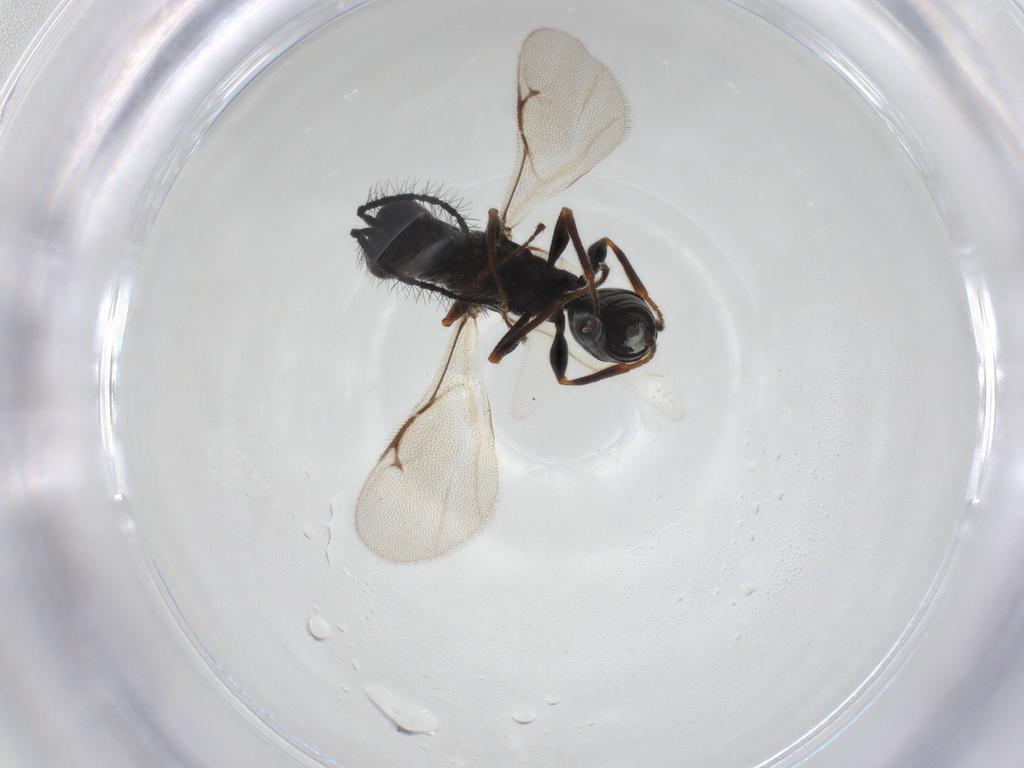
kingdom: Animalia
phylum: Arthropoda
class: Insecta
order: Hymenoptera
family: Eurytomidae
